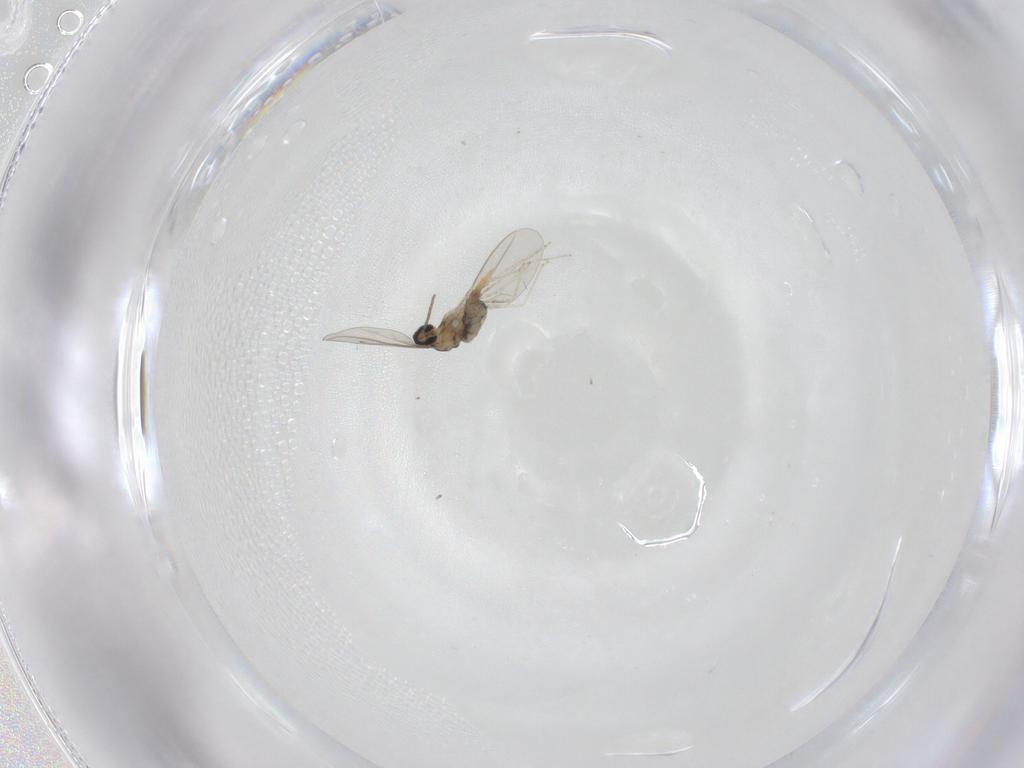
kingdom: Animalia
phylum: Arthropoda
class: Insecta
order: Diptera
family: Cecidomyiidae
